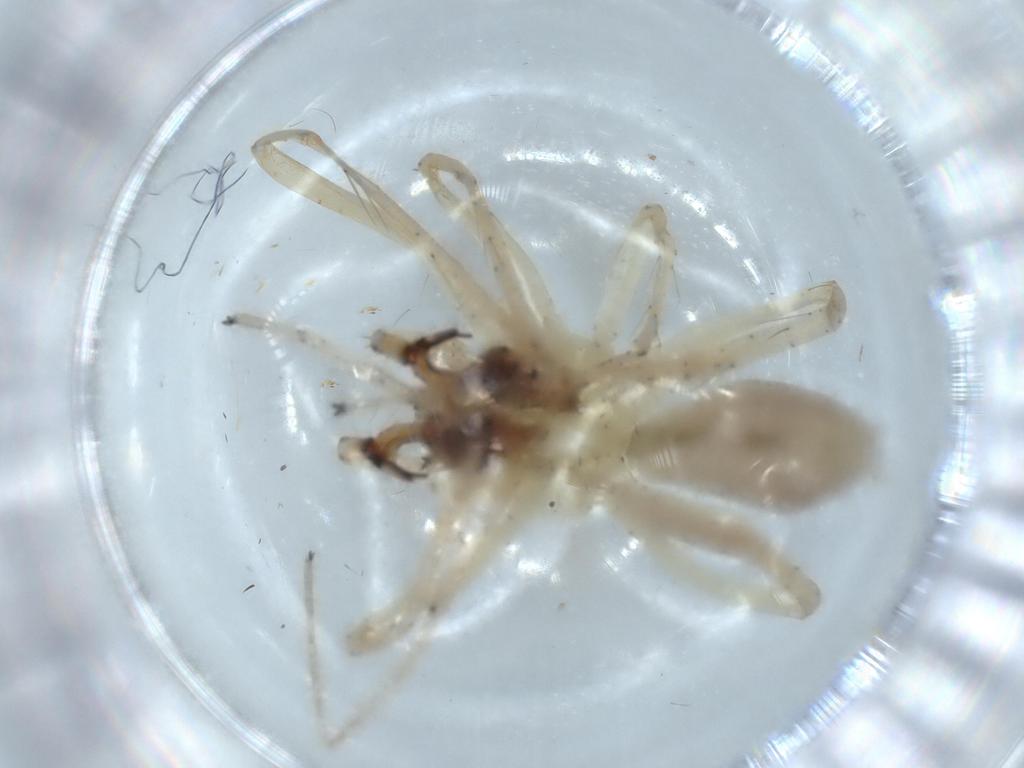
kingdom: Animalia
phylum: Arthropoda
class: Arachnida
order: Araneae
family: Anyphaenidae
